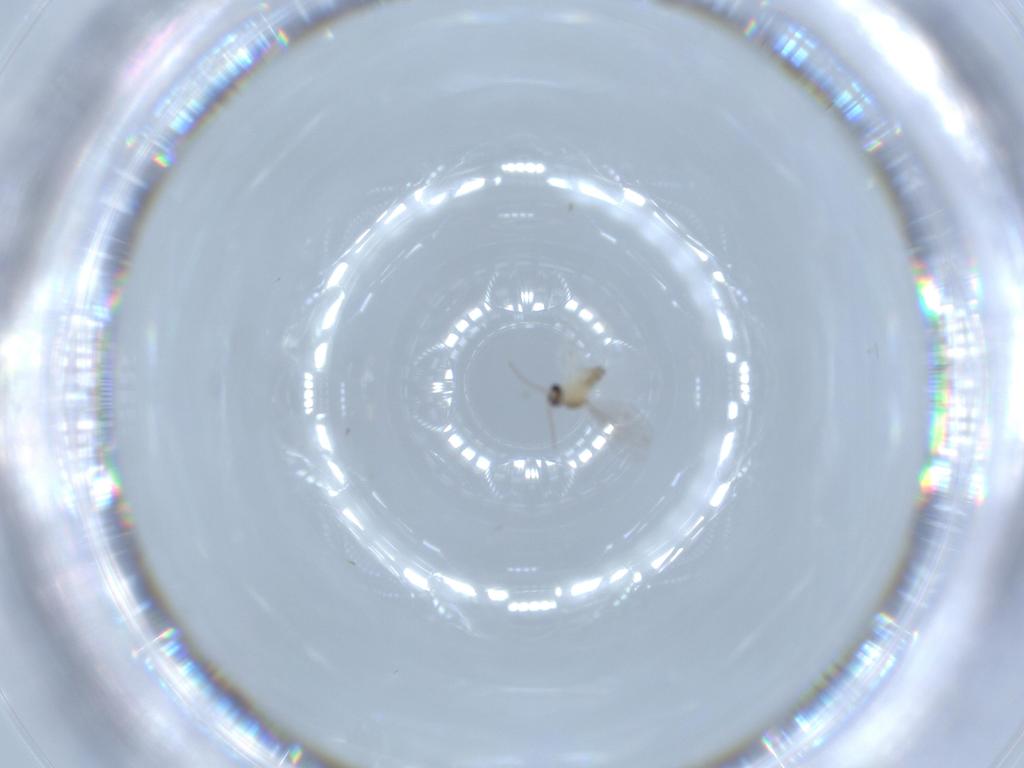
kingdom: Animalia
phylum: Arthropoda
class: Insecta
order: Diptera
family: Cecidomyiidae
